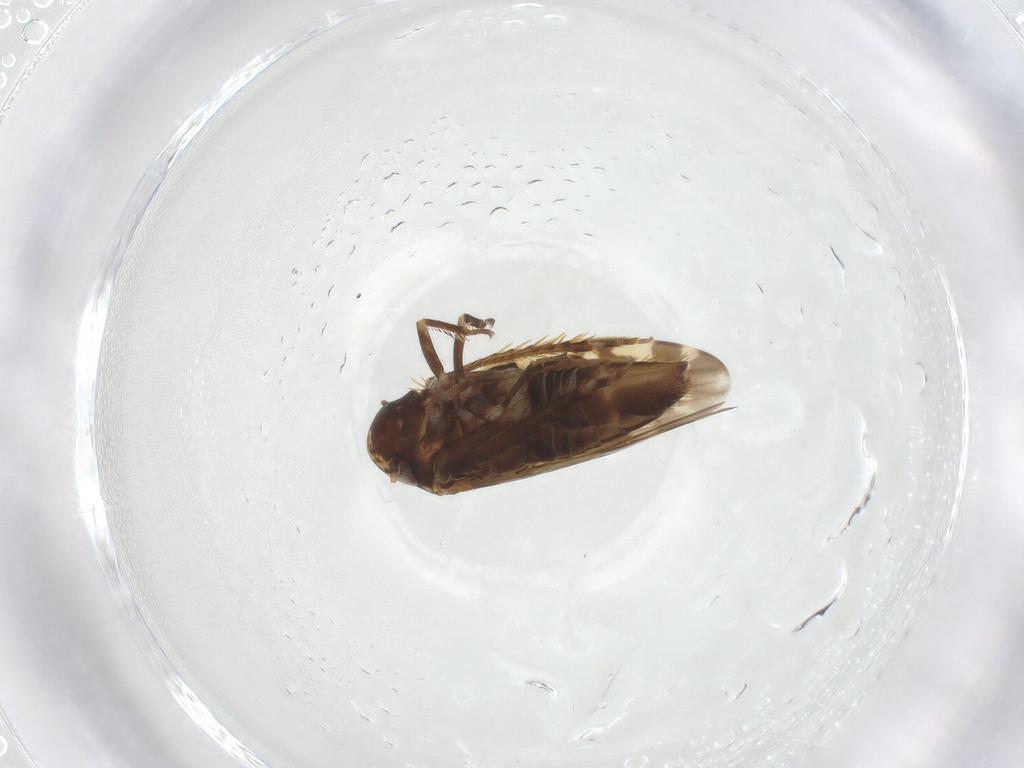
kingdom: Animalia
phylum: Arthropoda
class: Insecta
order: Hemiptera
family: Cicadellidae
